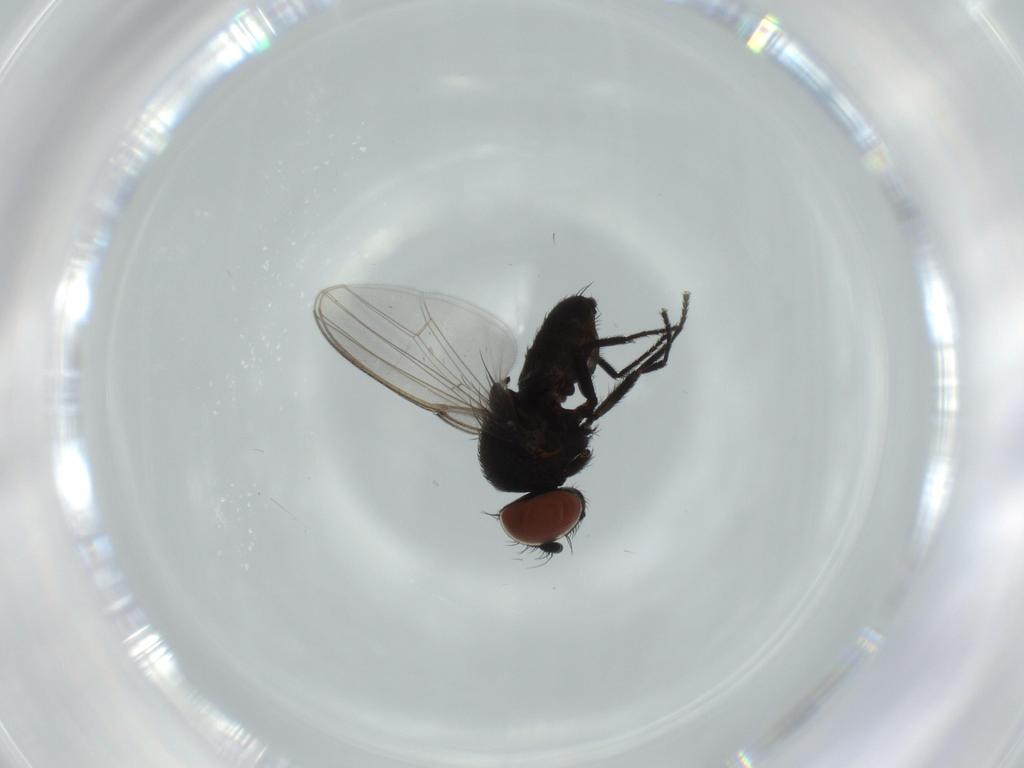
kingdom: Animalia
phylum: Arthropoda
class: Insecta
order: Diptera
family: Milichiidae
